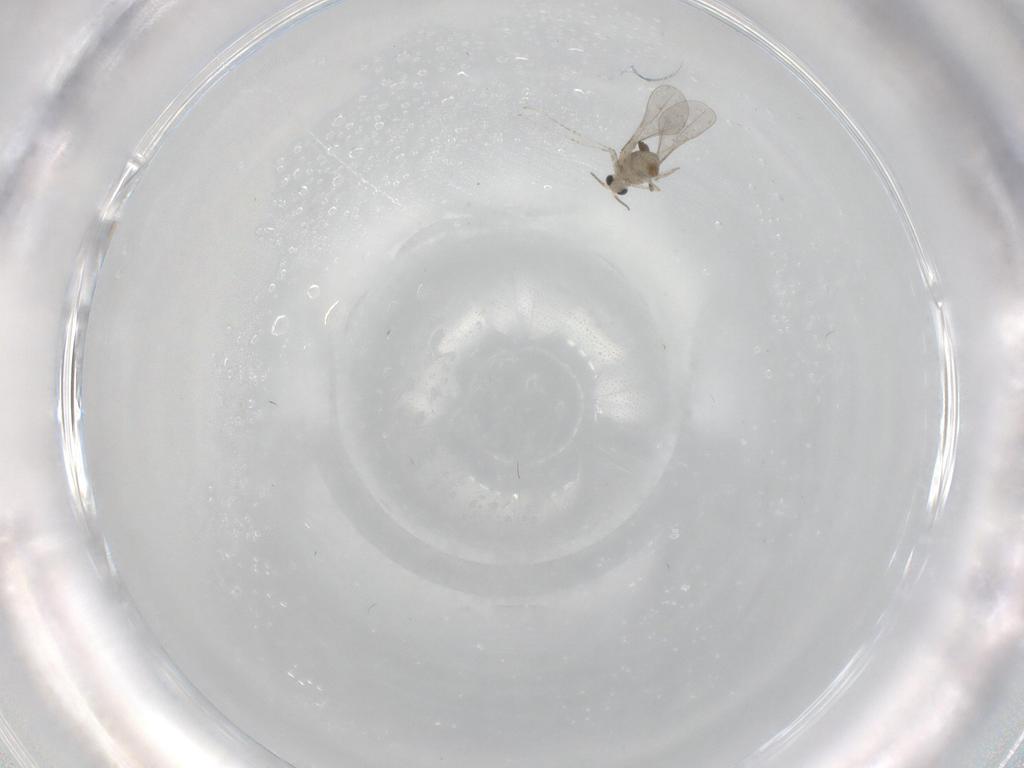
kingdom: Animalia
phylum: Arthropoda
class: Insecta
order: Diptera
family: Cecidomyiidae
